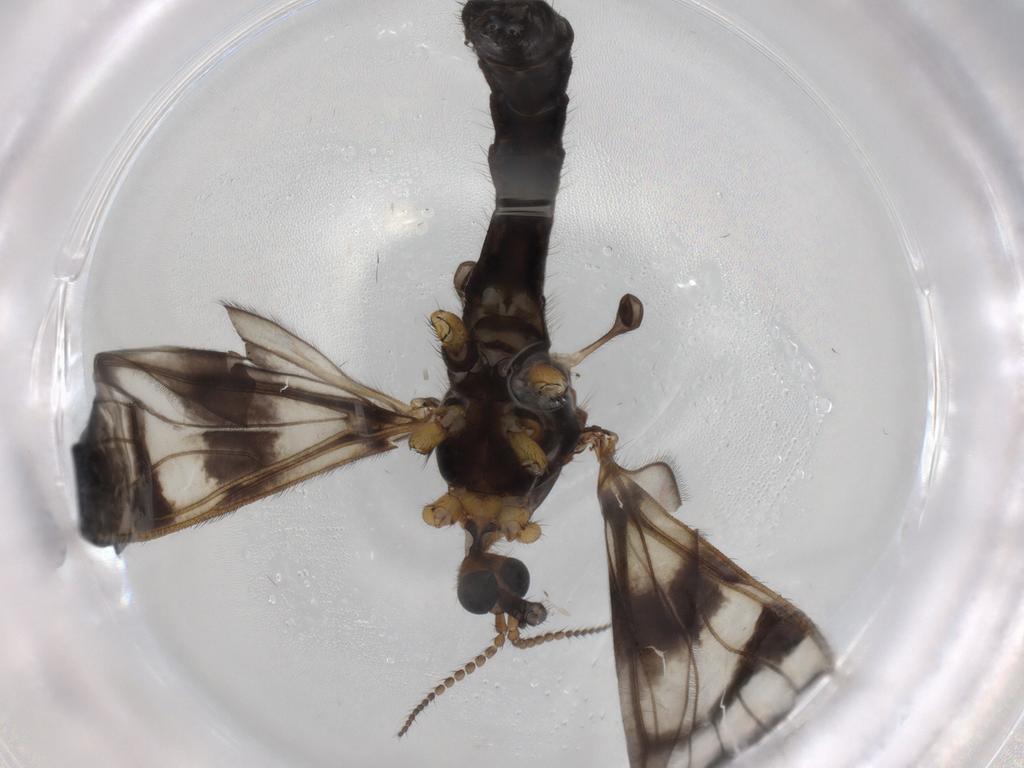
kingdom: Animalia
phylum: Arthropoda
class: Insecta
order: Diptera
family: Limoniidae
